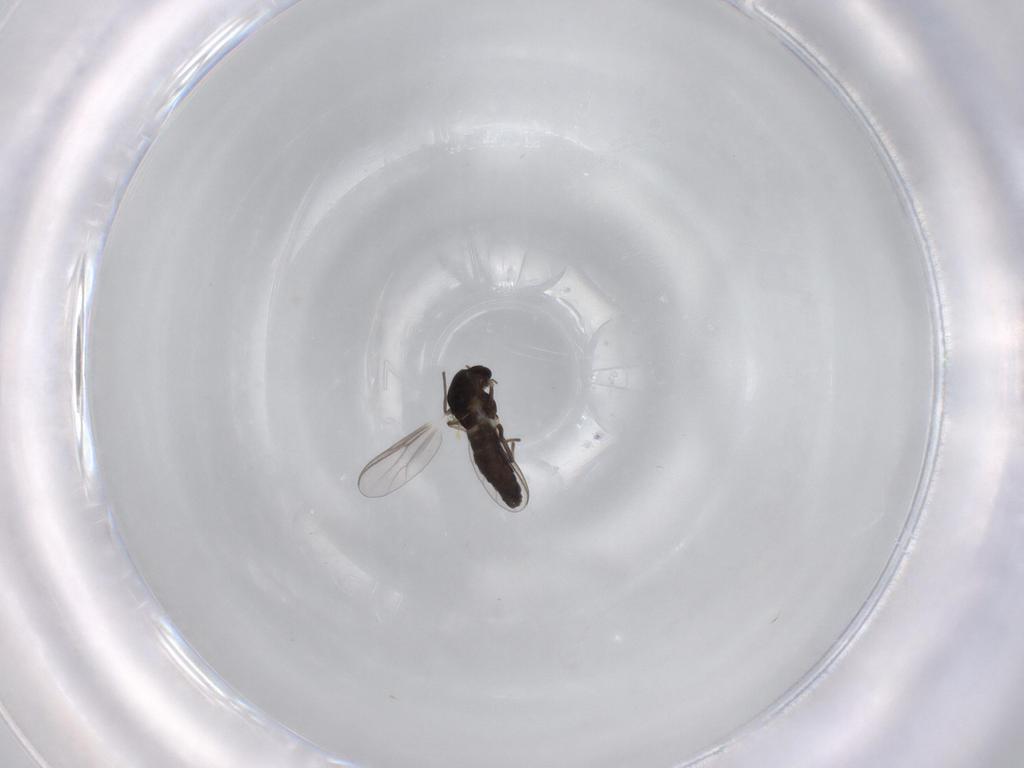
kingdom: Animalia
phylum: Arthropoda
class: Insecta
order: Diptera
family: Chironomidae
